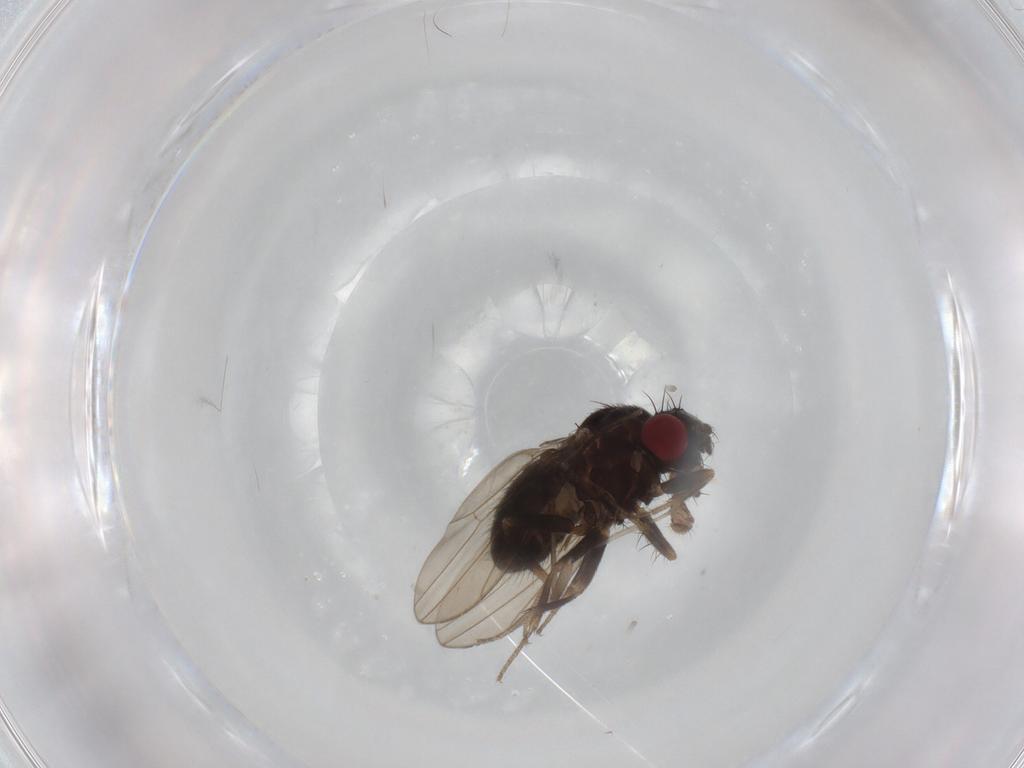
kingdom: Animalia
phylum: Arthropoda
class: Insecta
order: Diptera
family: Drosophilidae
